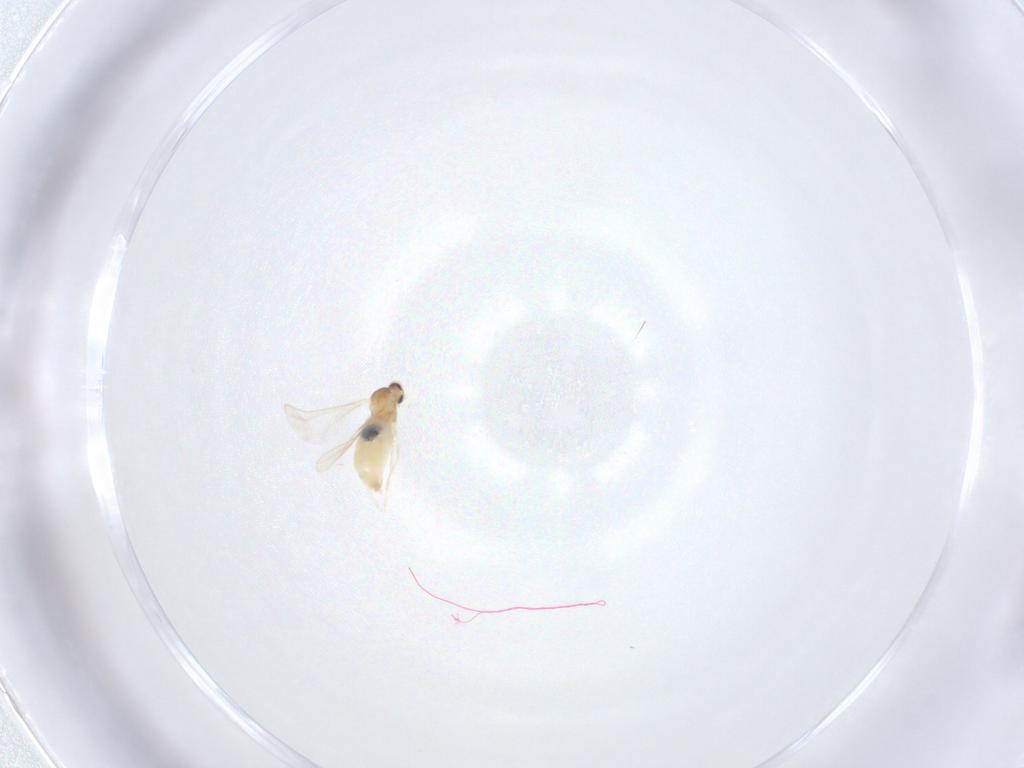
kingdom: Animalia
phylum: Arthropoda
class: Insecta
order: Diptera
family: Cecidomyiidae
